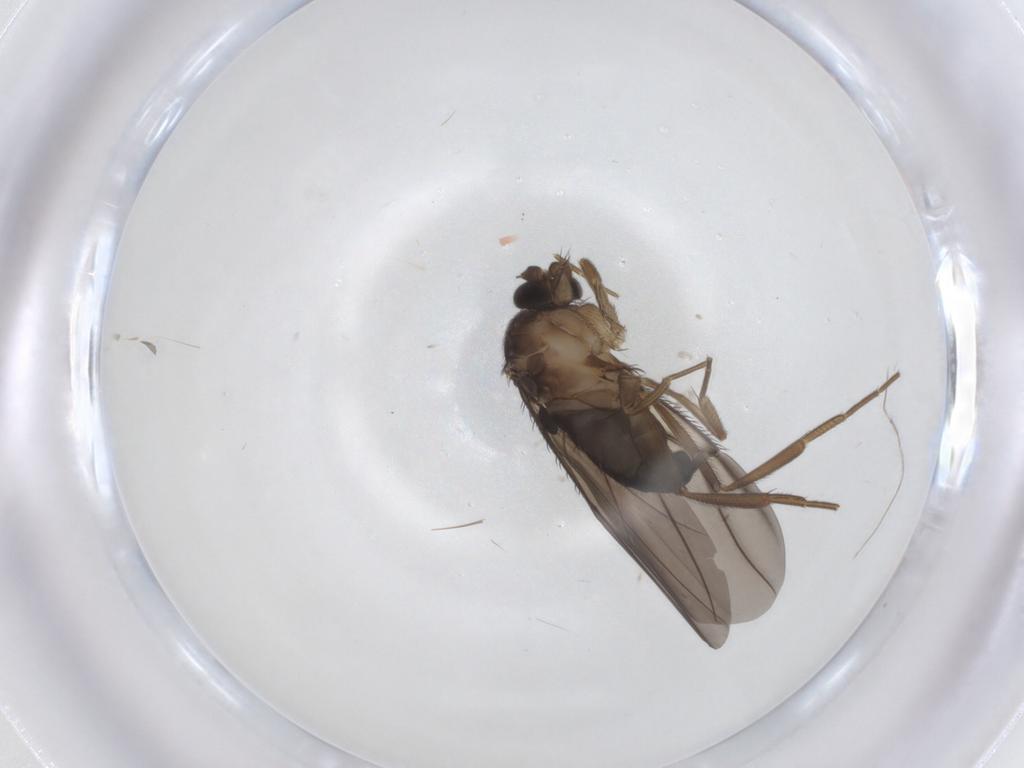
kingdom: Animalia
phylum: Arthropoda
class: Insecta
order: Diptera
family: Phoridae
